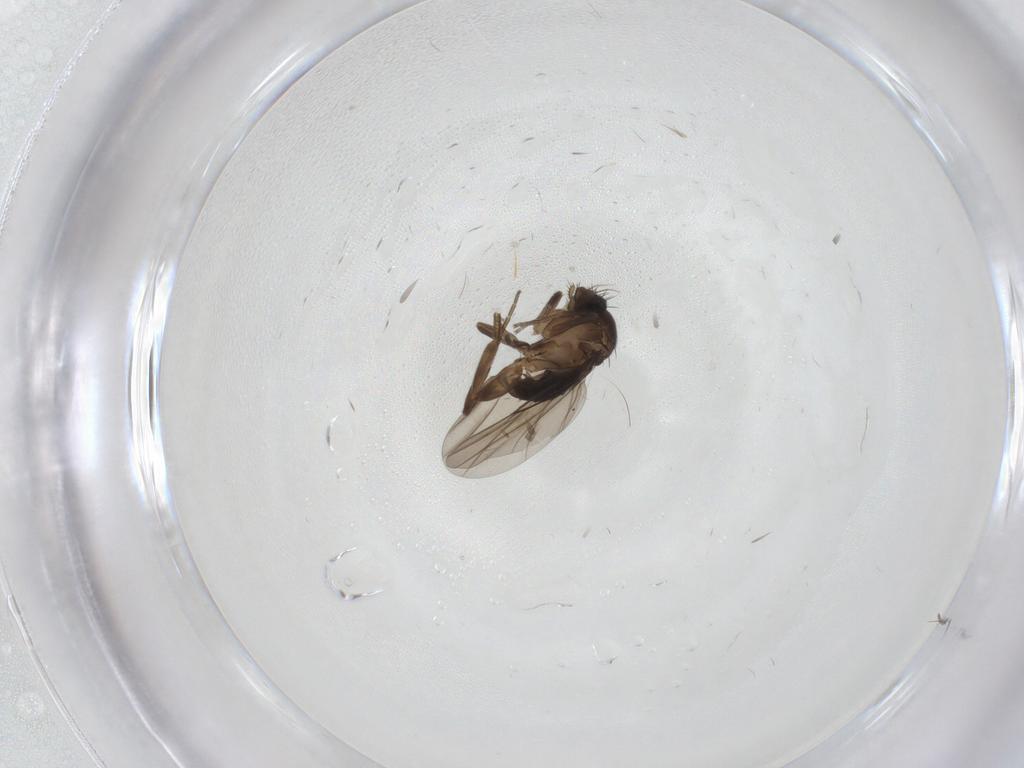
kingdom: Animalia
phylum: Arthropoda
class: Insecta
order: Diptera
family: Phoridae
